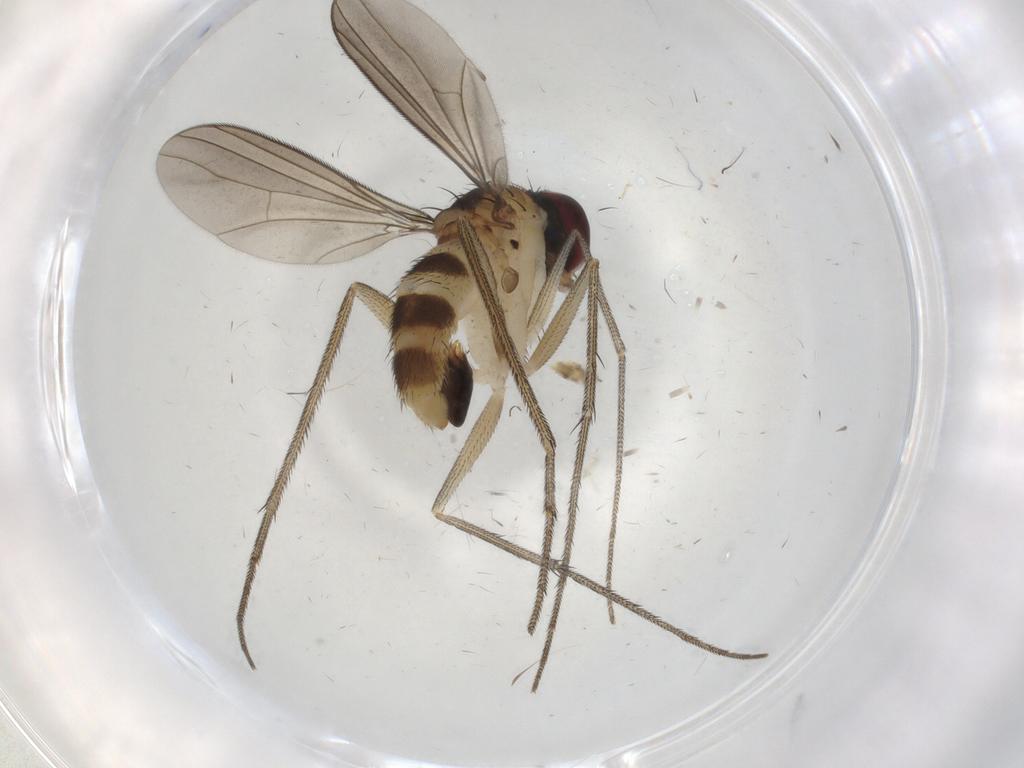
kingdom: Animalia
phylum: Arthropoda
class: Insecta
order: Diptera
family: Dolichopodidae
